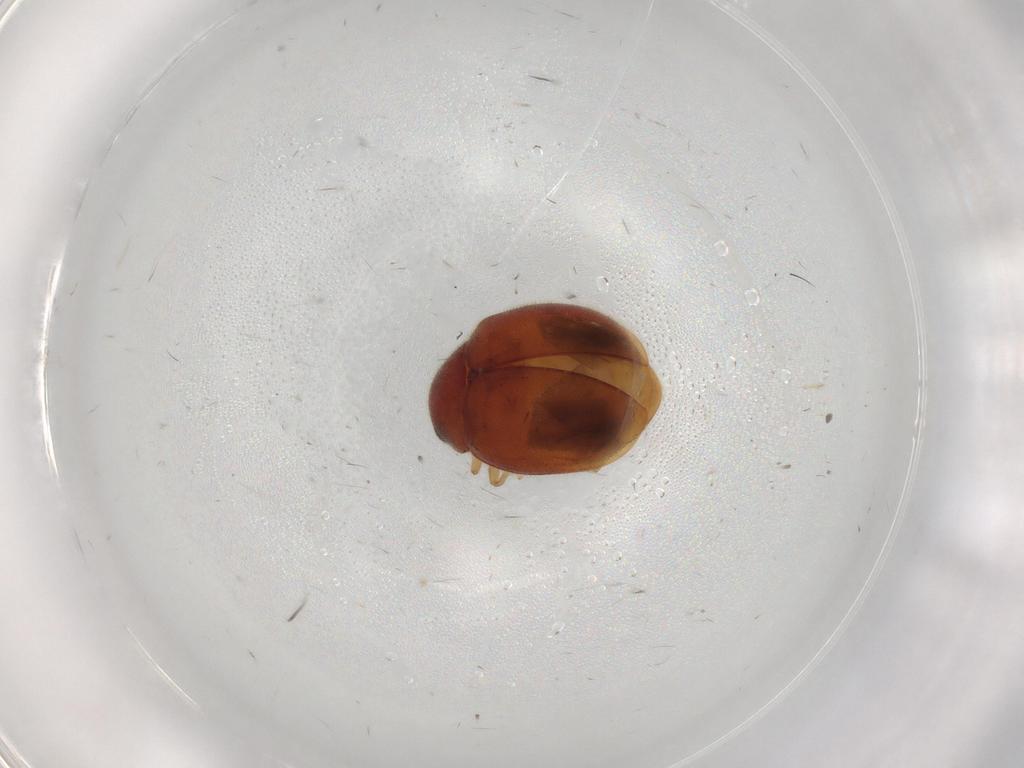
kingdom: Animalia
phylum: Arthropoda
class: Insecta
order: Coleoptera
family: Coccinellidae
